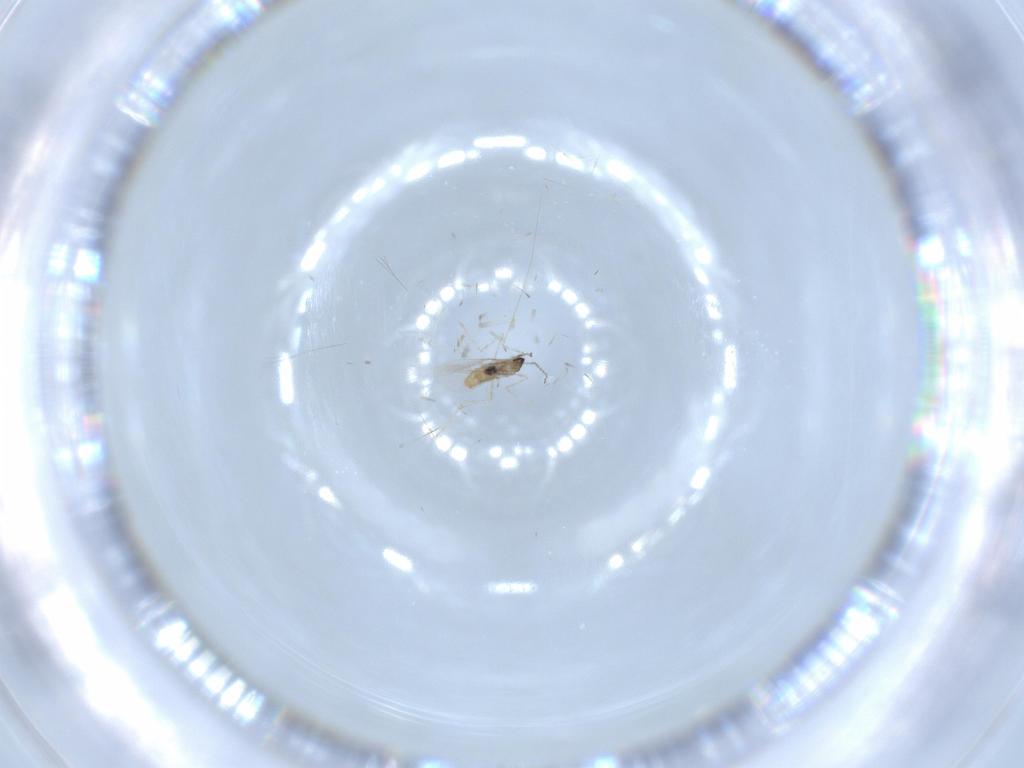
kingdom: Animalia
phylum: Arthropoda
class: Insecta
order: Diptera
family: Cecidomyiidae
